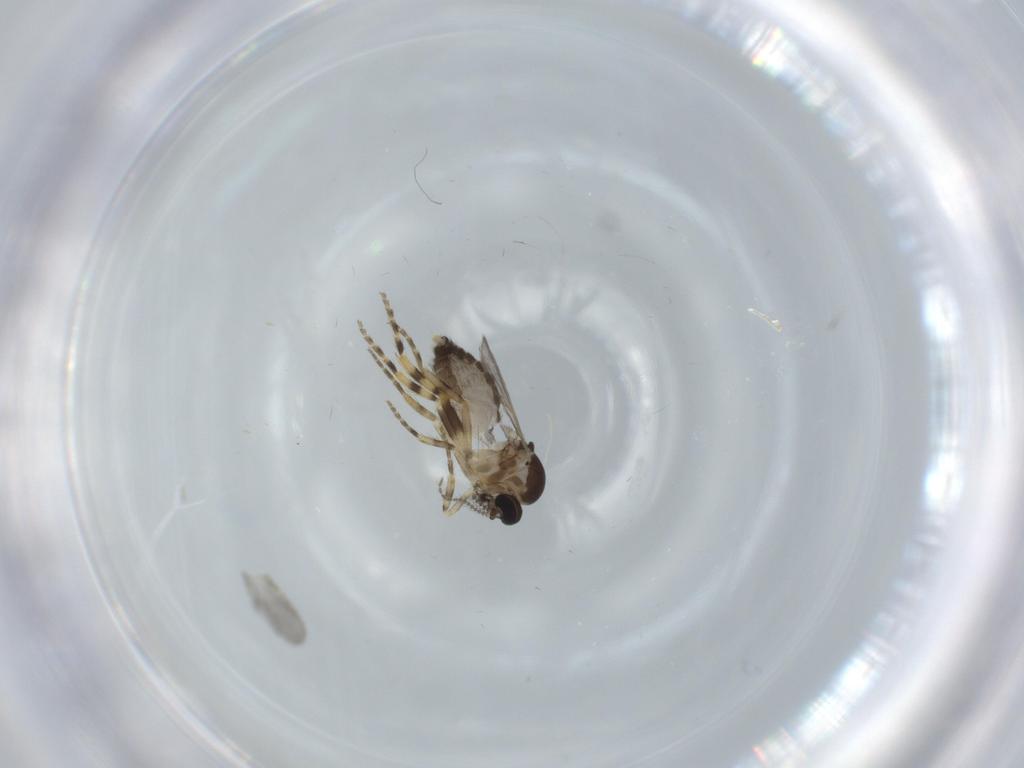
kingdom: Animalia
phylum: Arthropoda
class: Insecta
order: Diptera
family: Ceratopogonidae
